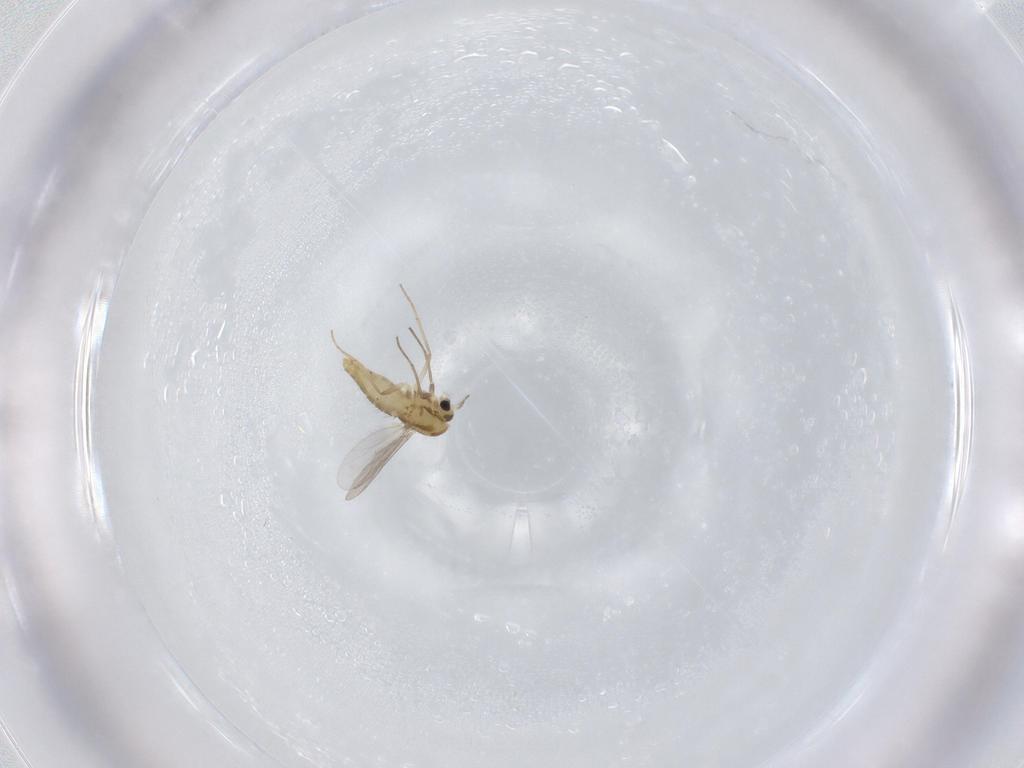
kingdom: Animalia
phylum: Arthropoda
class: Insecta
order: Diptera
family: Chironomidae
